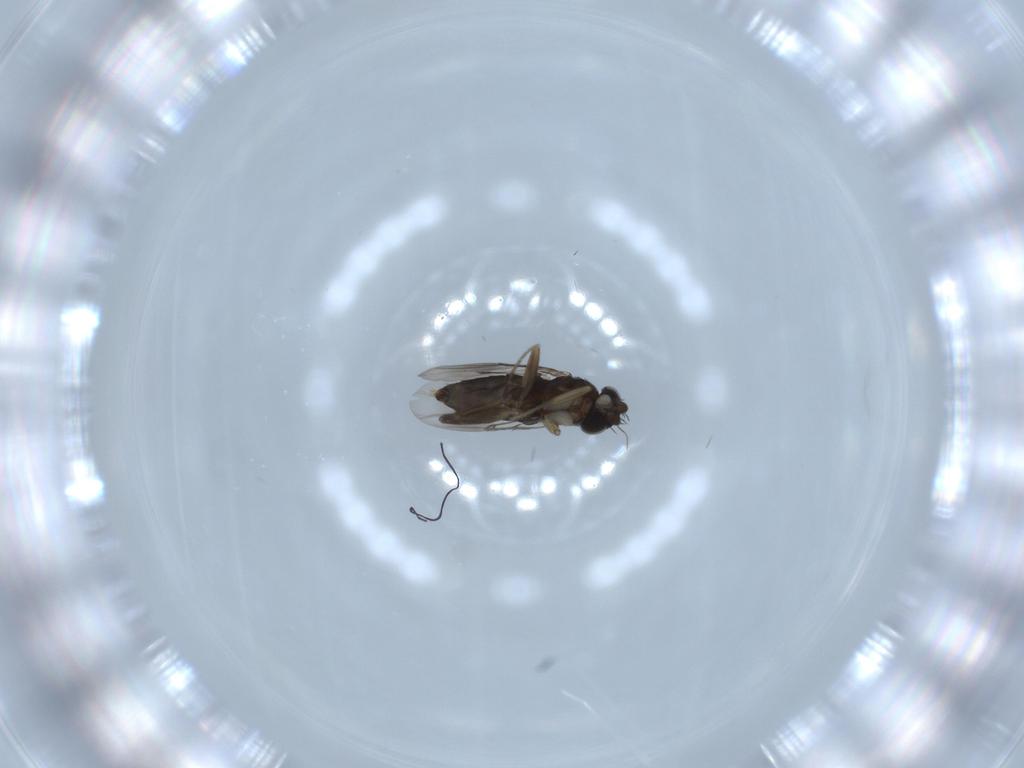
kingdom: Animalia
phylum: Arthropoda
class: Insecta
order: Diptera
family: Phoridae
